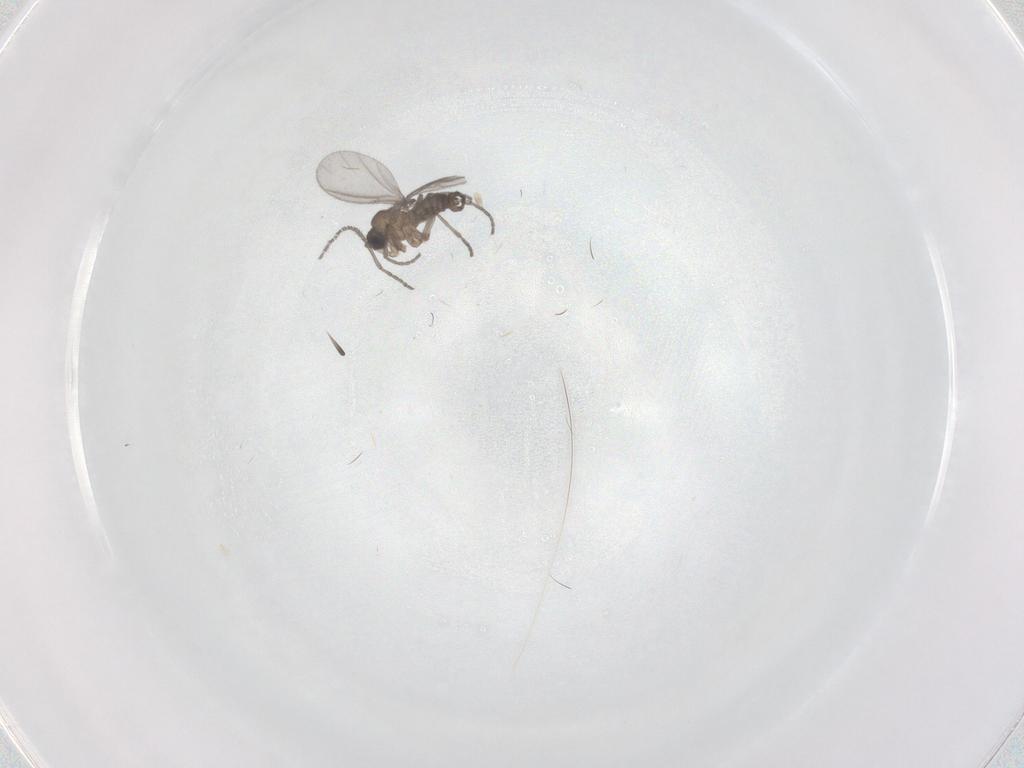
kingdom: Animalia
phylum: Arthropoda
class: Insecta
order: Diptera
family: Sciaridae
